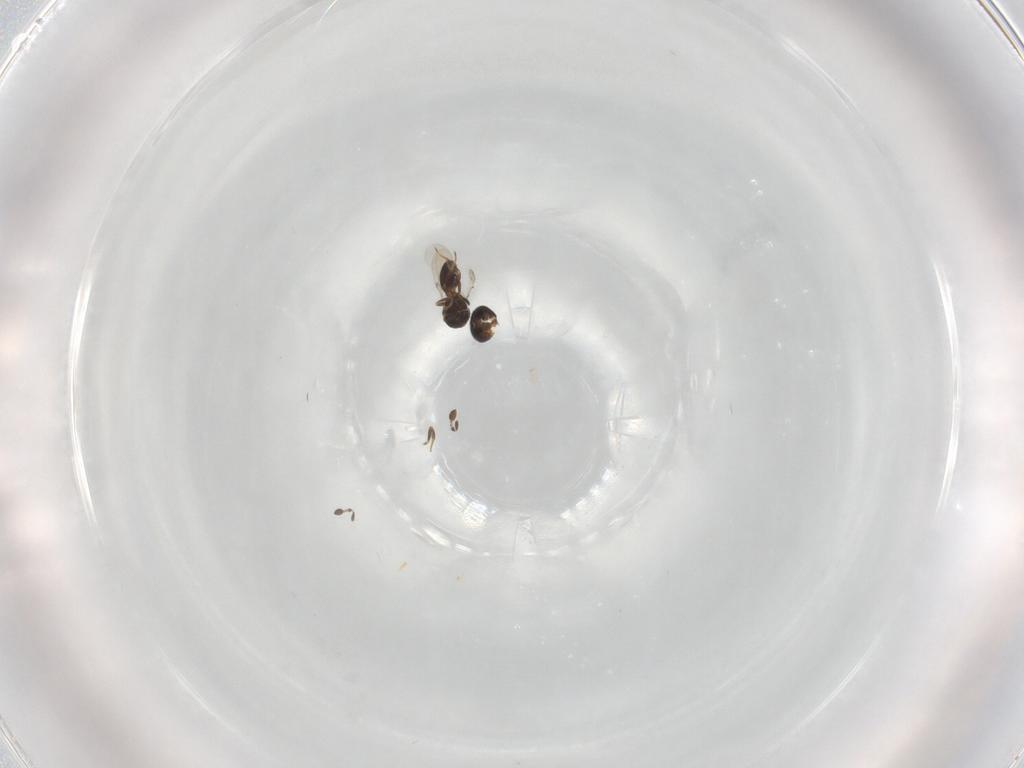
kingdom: Animalia
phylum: Arthropoda
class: Insecta
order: Hymenoptera
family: Scelionidae
